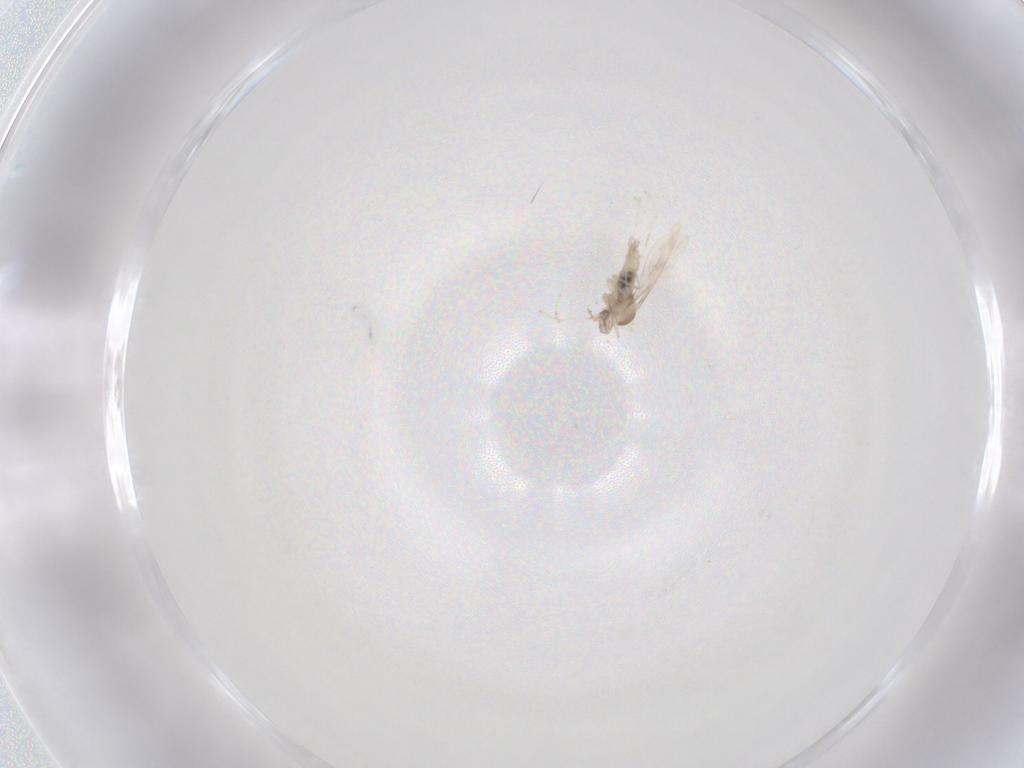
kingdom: Animalia
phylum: Arthropoda
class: Insecta
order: Diptera
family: Cecidomyiidae
